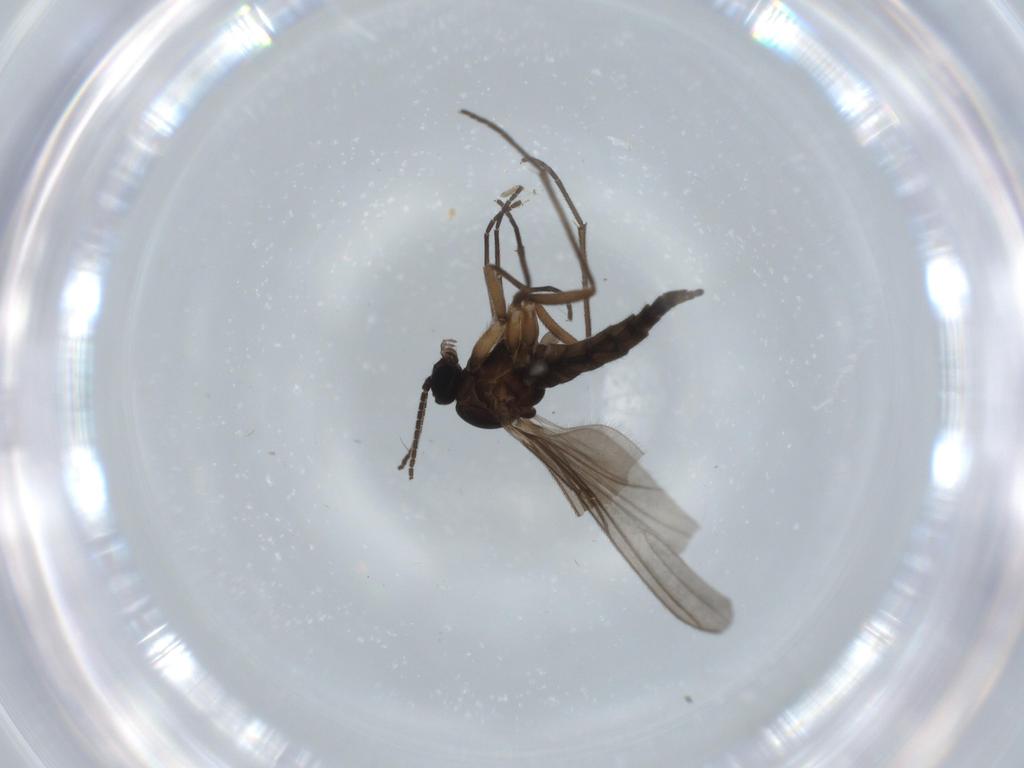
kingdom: Animalia
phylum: Arthropoda
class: Insecta
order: Diptera
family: Sciaridae
